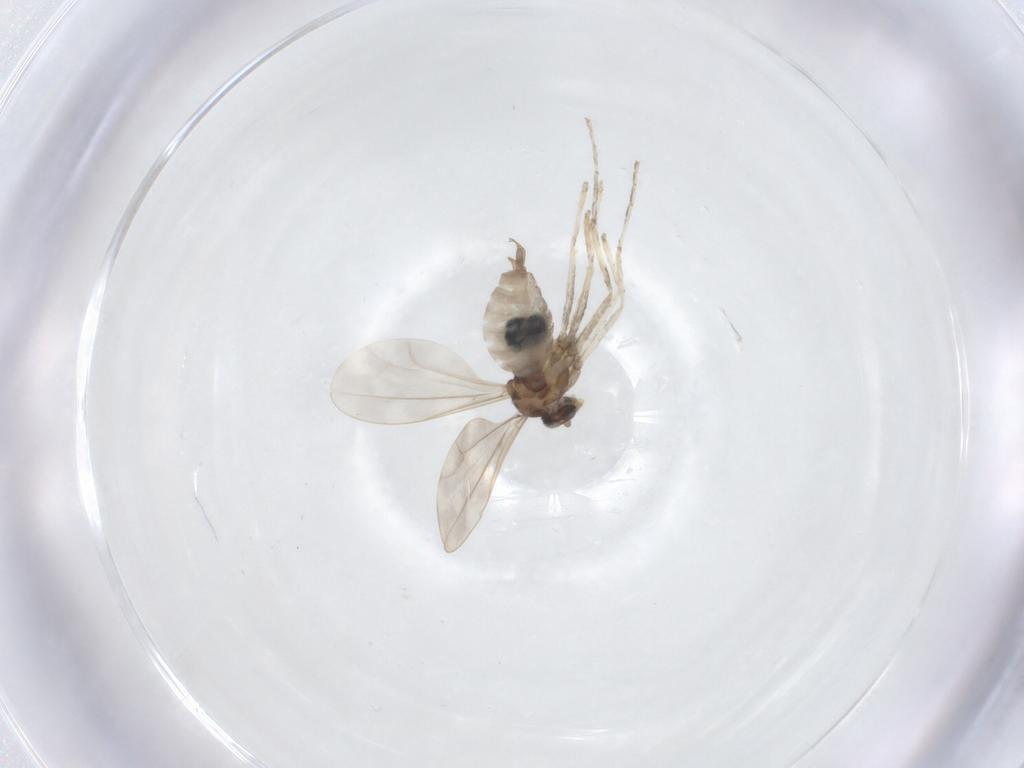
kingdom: Animalia
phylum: Arthropoda
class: Insecta
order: Diptera
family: Cecidomyiidae
